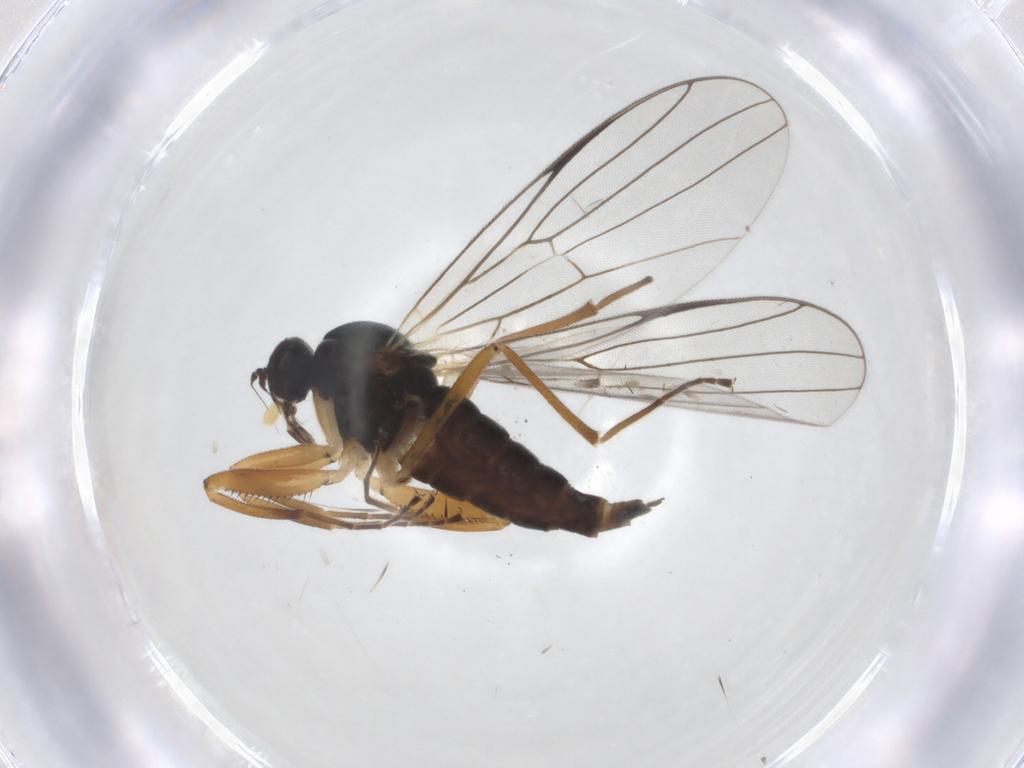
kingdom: Animalia
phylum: Arthropoda
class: Insecta
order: Diptera
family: Hybotidae
